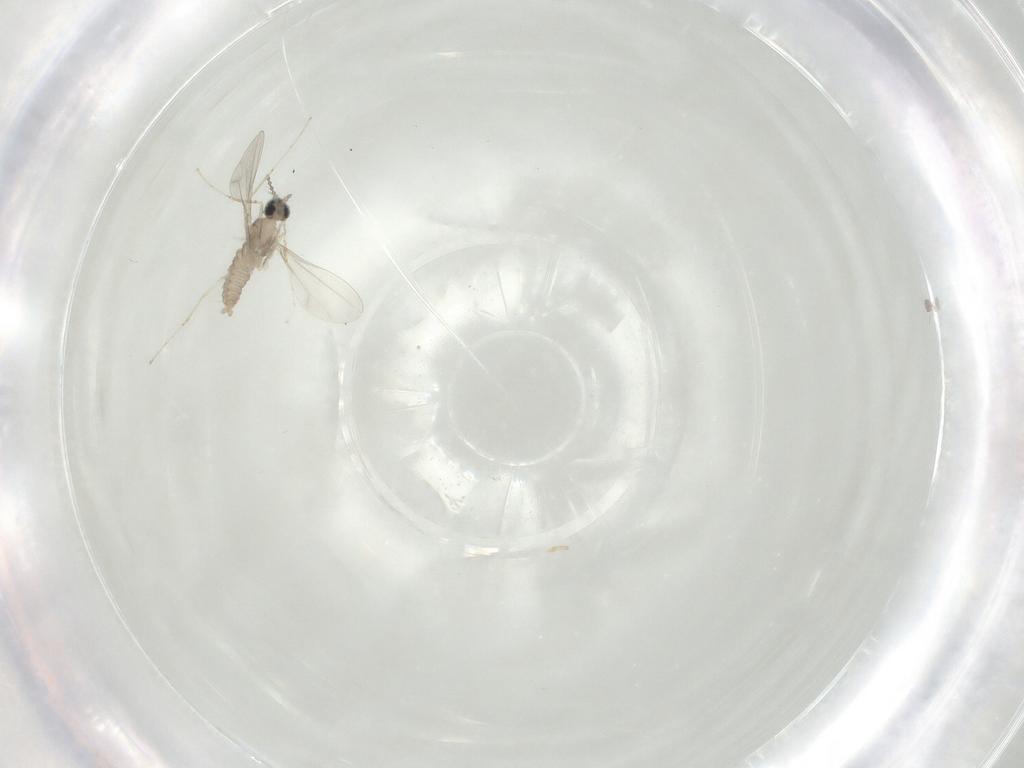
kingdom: Animalia
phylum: Arthropoda
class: Insecta
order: Diptera
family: Cecidomyiidae
